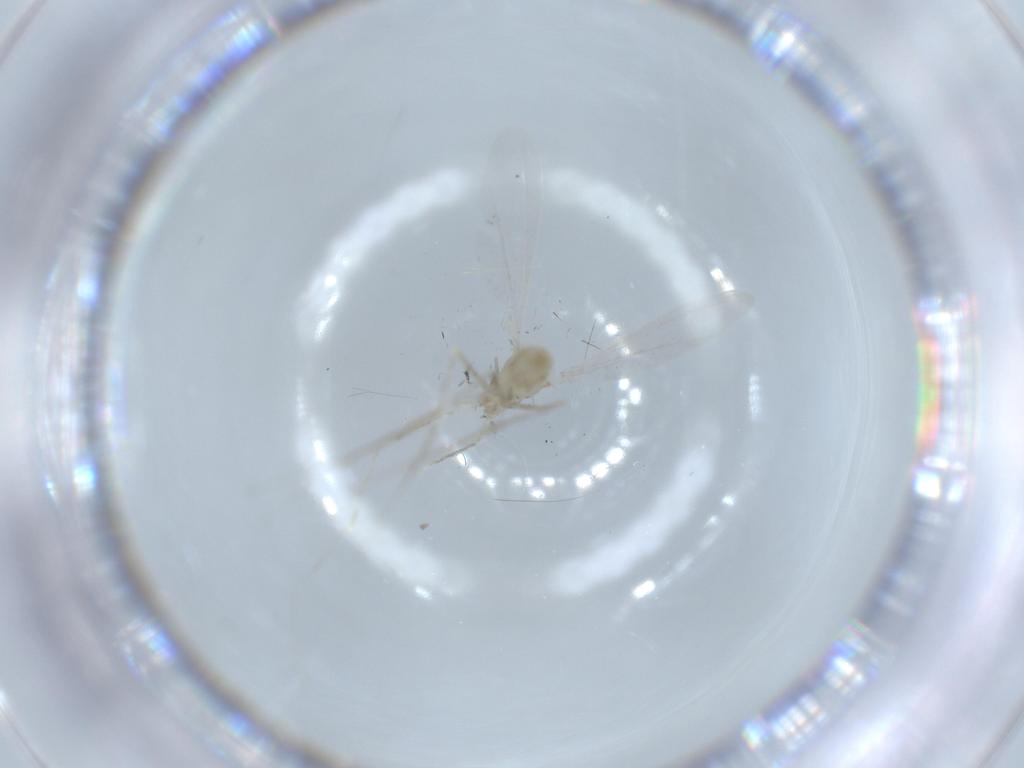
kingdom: Animalia
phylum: Arthropoda
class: Insecta
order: Diptera
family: Cecidomyiidae
